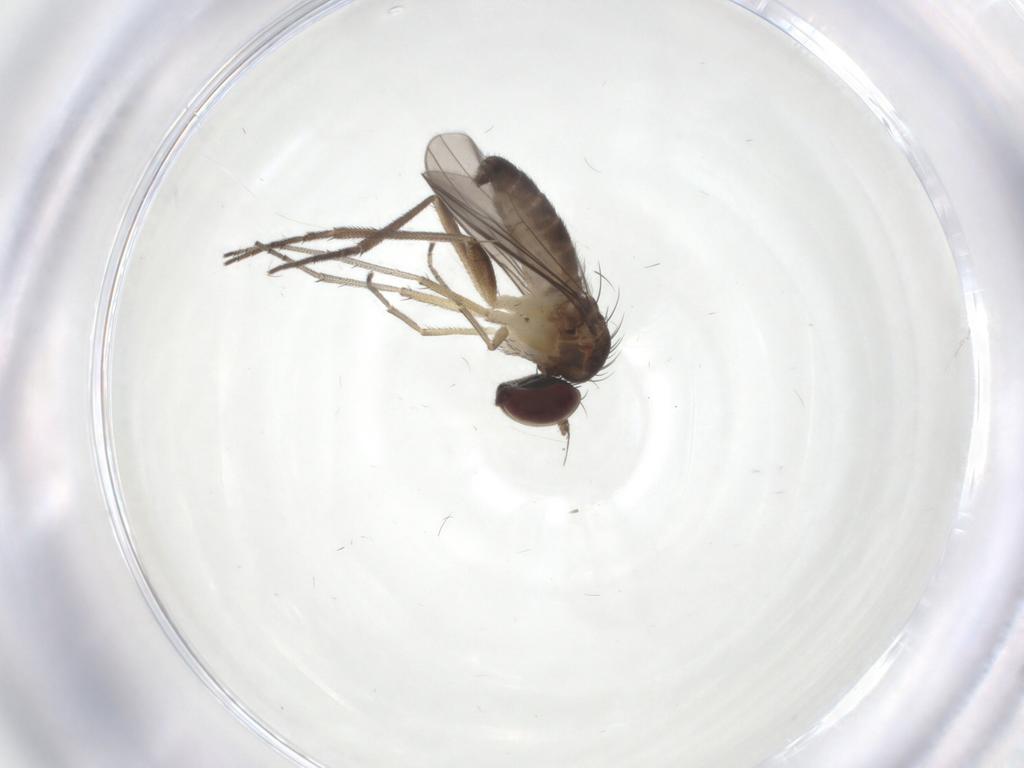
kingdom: Animalia
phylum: Arthropoda
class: Insecta
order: Diptera
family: Dolichopodidae
